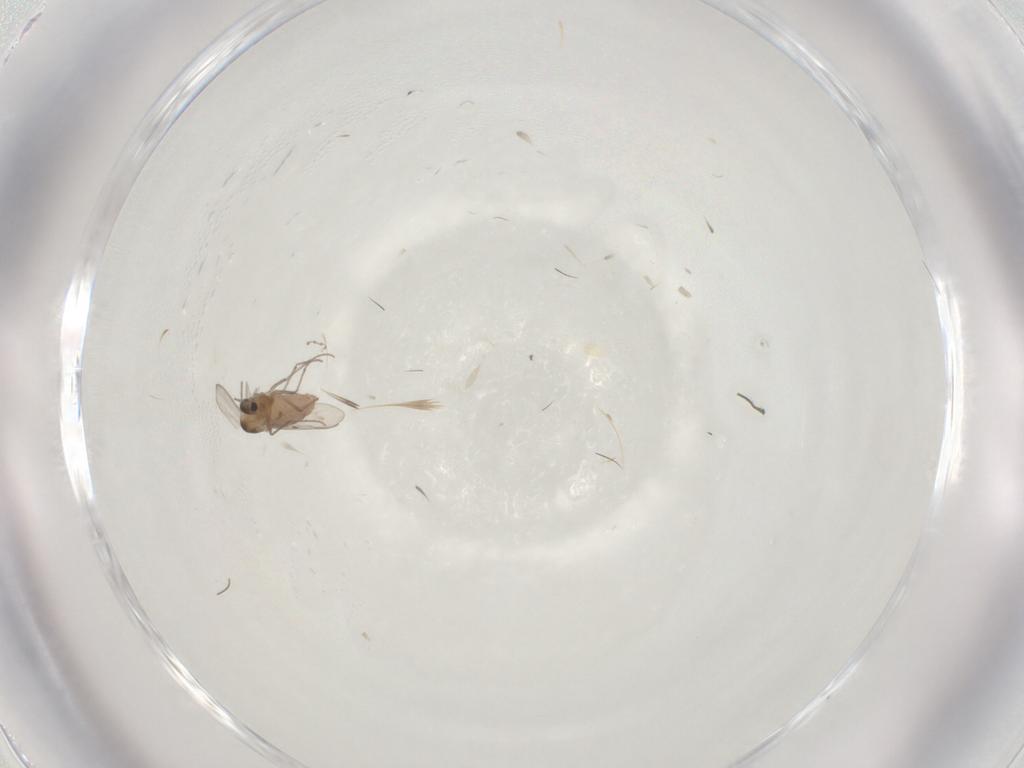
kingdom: Animalia
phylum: Arthropoda
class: Insecta
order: Diptera
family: Chironomidae
